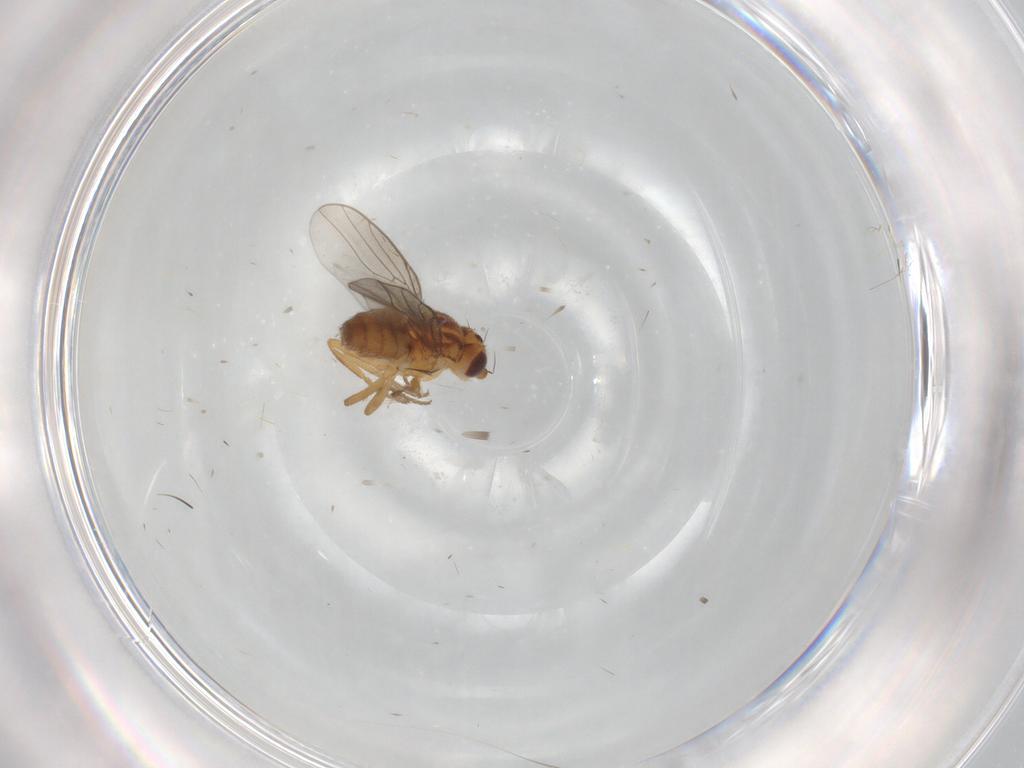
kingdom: Animalia
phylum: Arthropoda
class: Insecta
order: Diptera
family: Chloropidae
